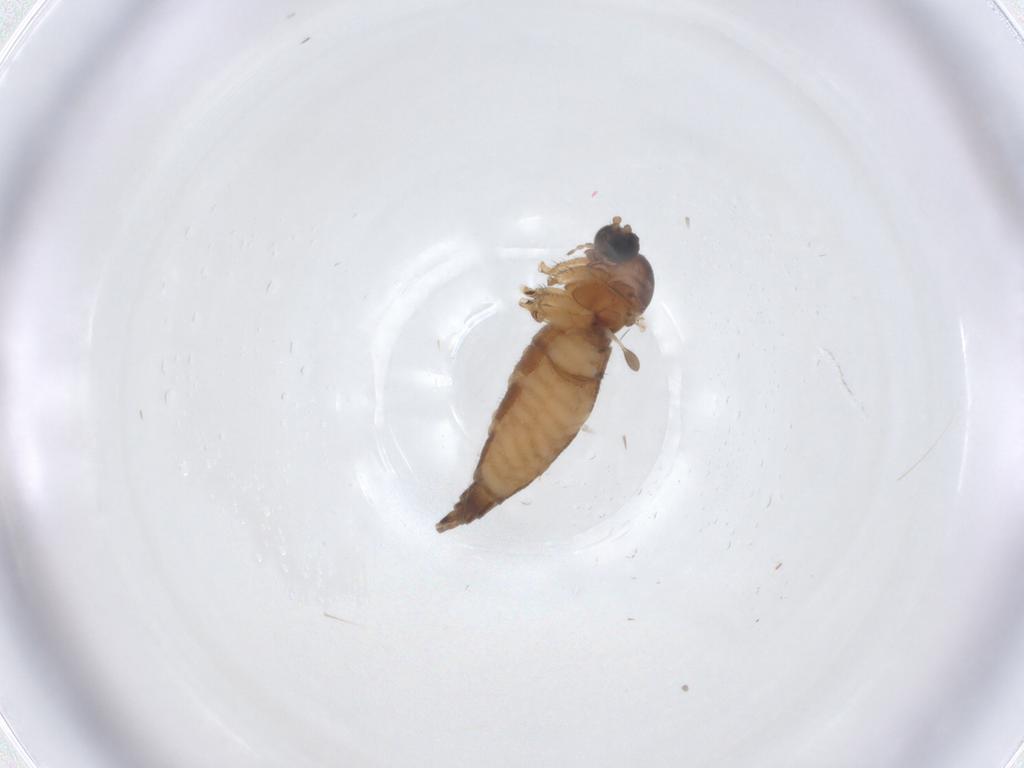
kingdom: Animalia
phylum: Arthropoda
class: Insecta
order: Diptera
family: Sciaridae
